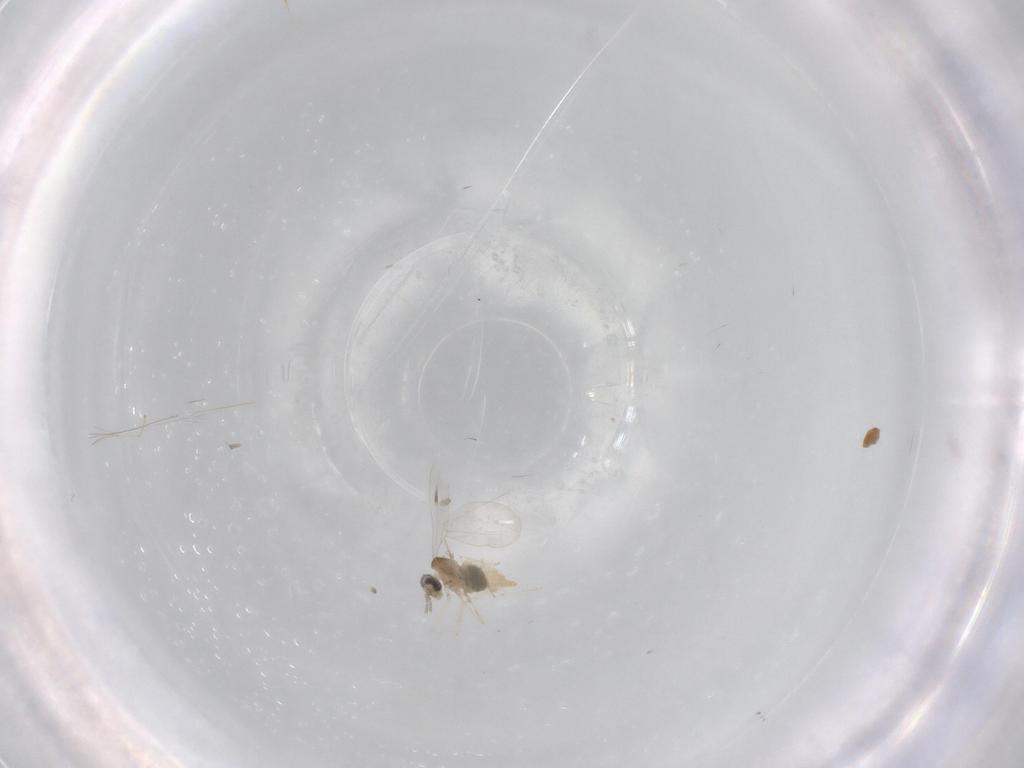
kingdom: Animalia
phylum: Arthropoda
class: Insecta
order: Diptera
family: Cecidomyiidae
